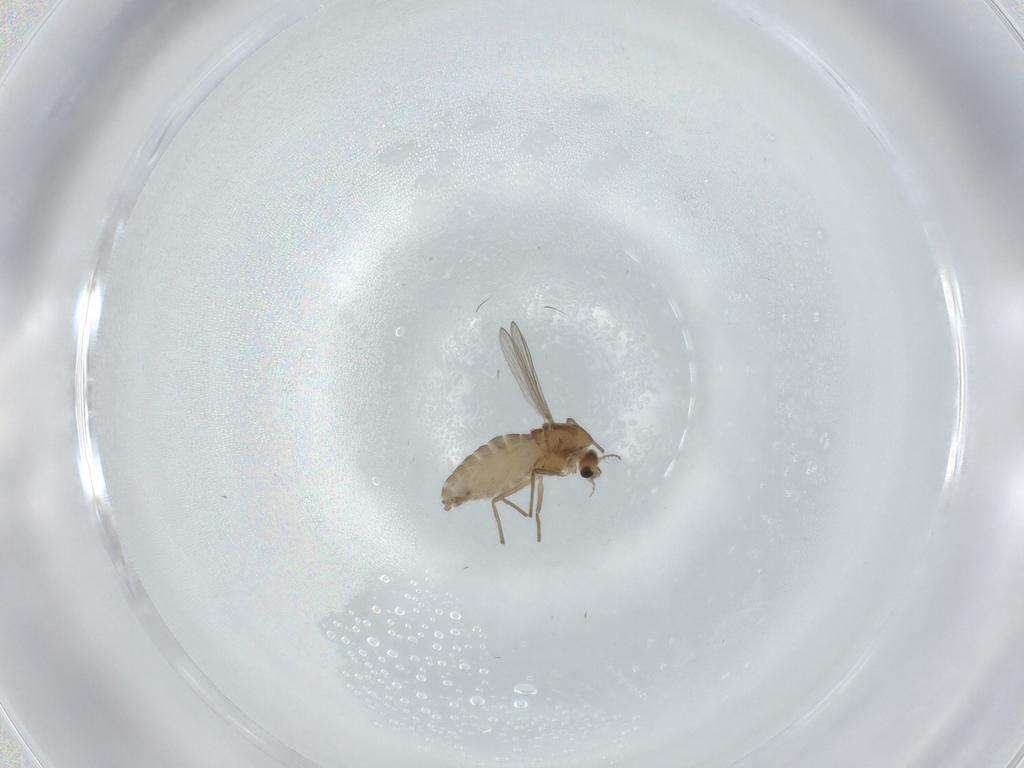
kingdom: Animalia
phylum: Arthropoda
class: Insecta
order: Diptera
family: Chironomidae
